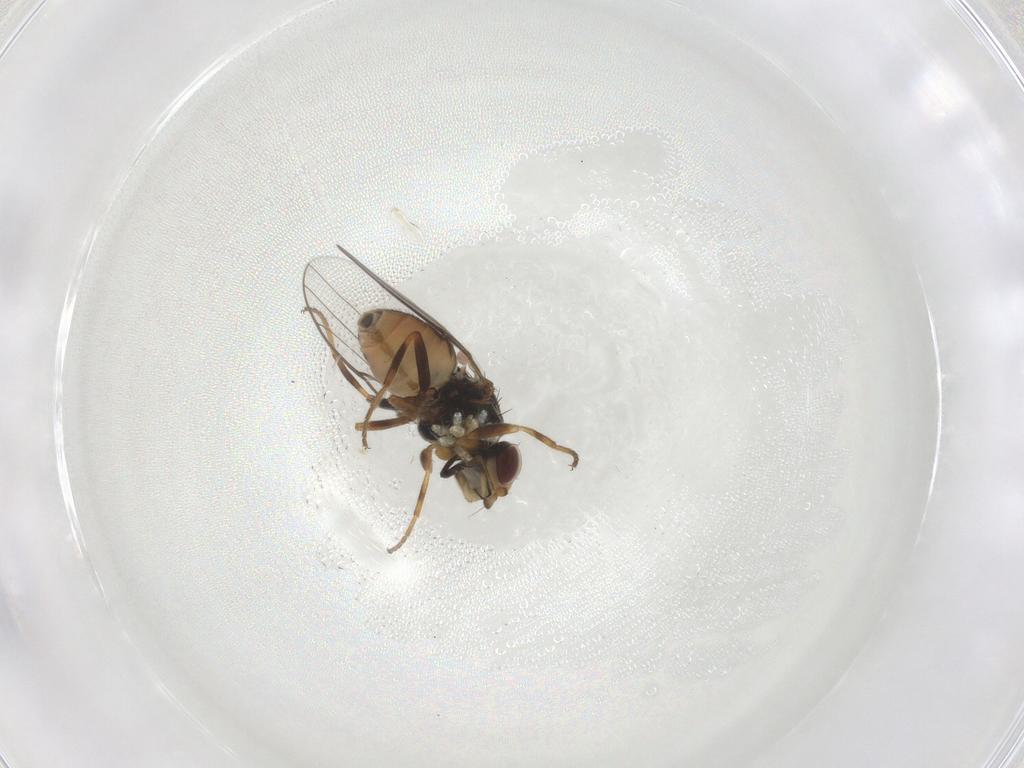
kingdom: Animalia
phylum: Arthropoda
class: Insecta
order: Diptera
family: Chloropidae
